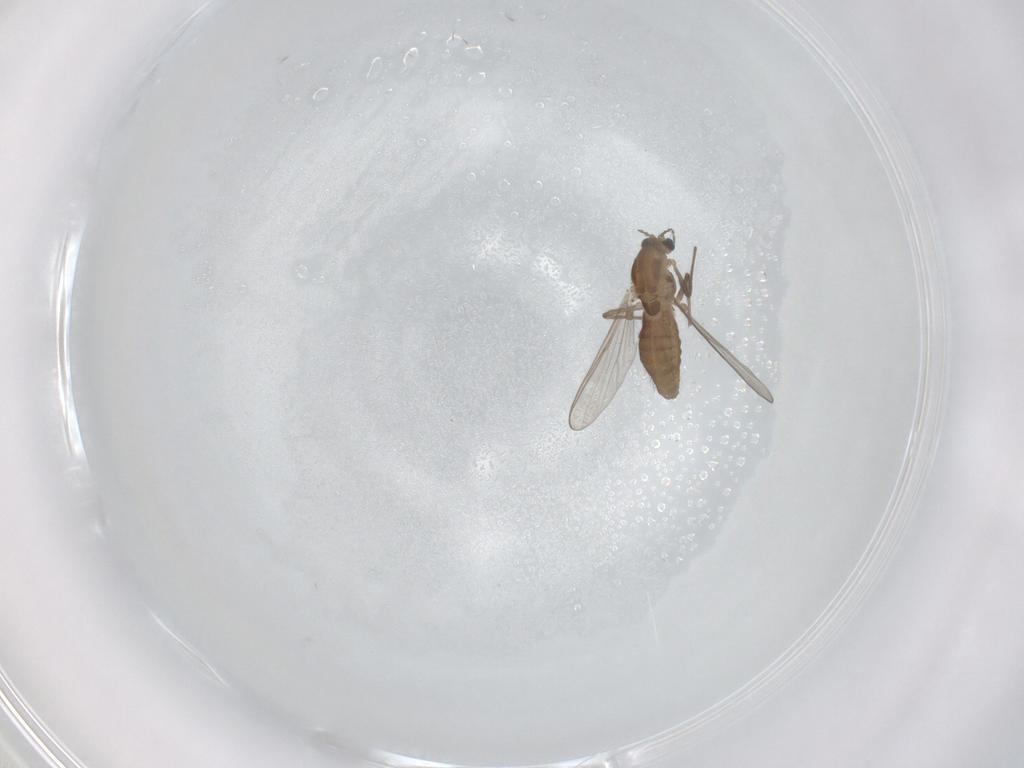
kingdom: Animalia
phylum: Arthropoda
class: Insecta
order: Diptera
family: Chironomidae
